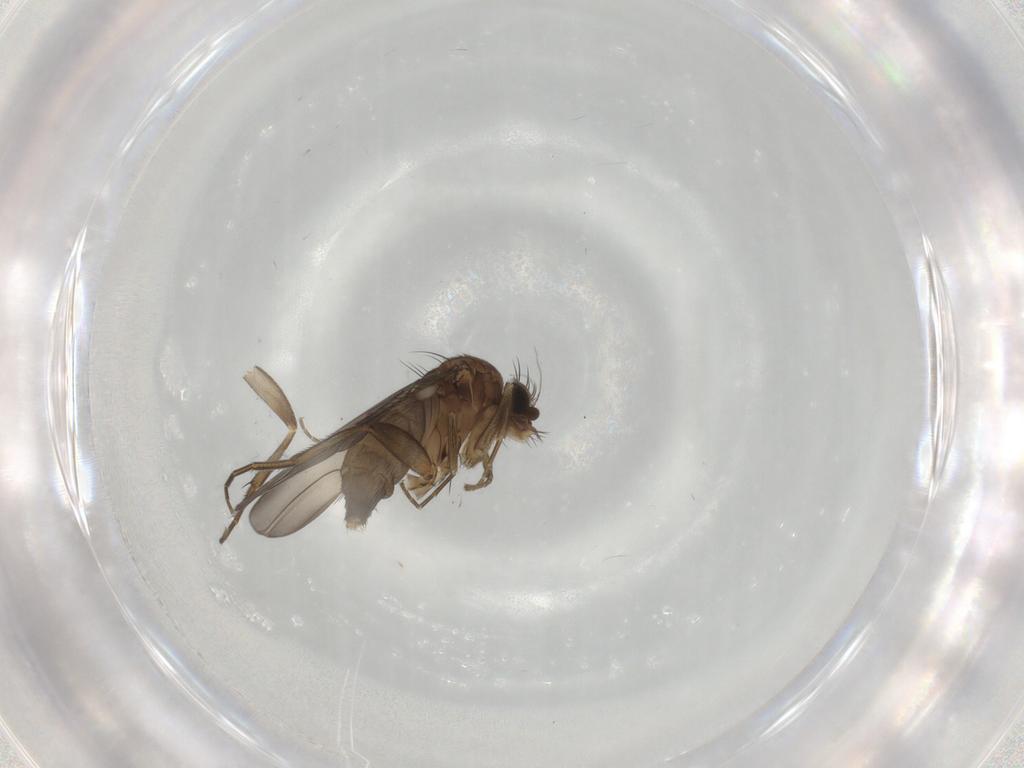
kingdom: Animalia
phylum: Arthropoda
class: Insecta
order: Diptera
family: Phoridae
